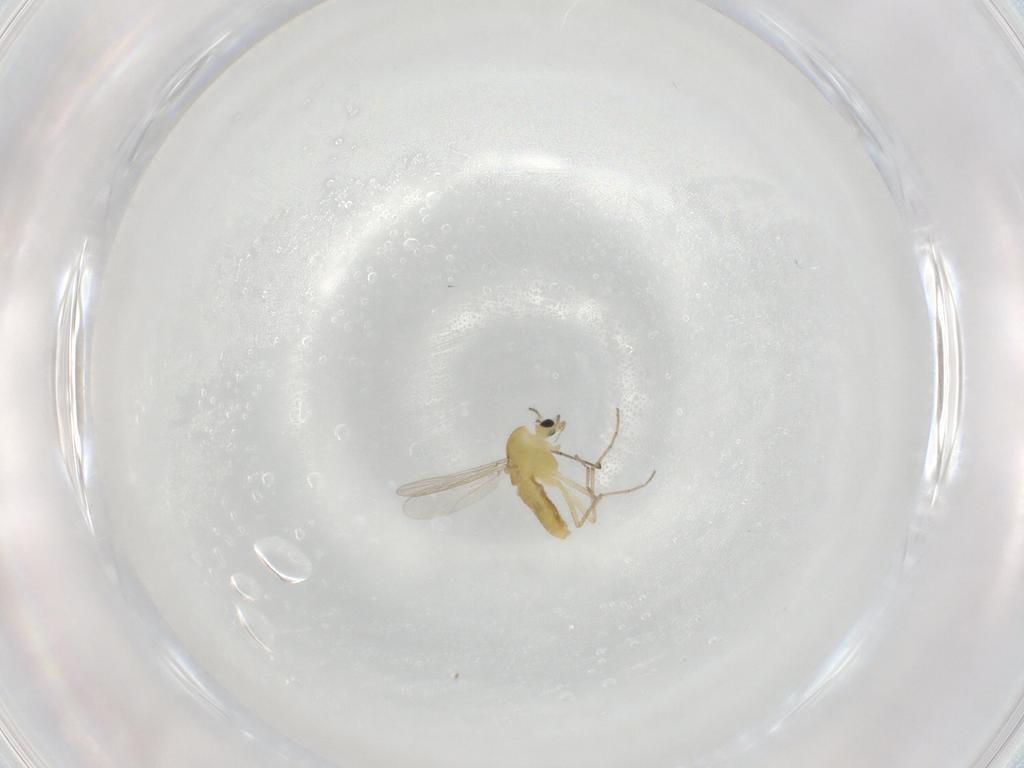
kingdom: Animalia
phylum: Arthropoda
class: Insecta
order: Diptera
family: Chironomidae
